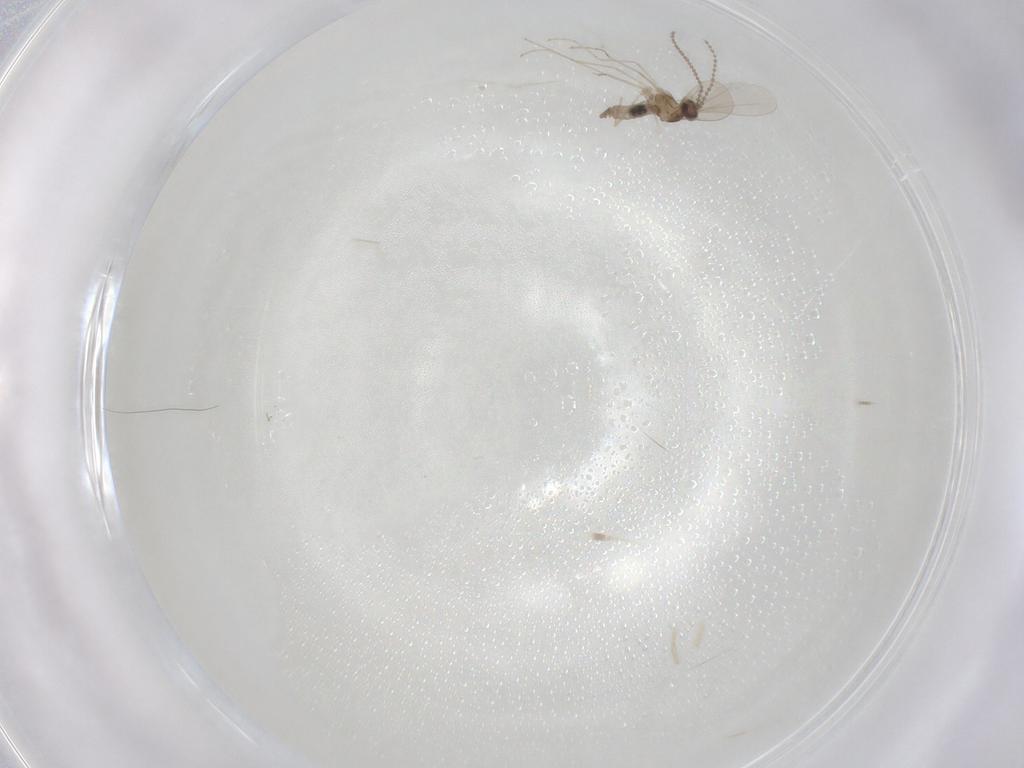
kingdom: Animalia
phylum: Arthropoda
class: Insecta
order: Diptera
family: Cecidomyiidae
